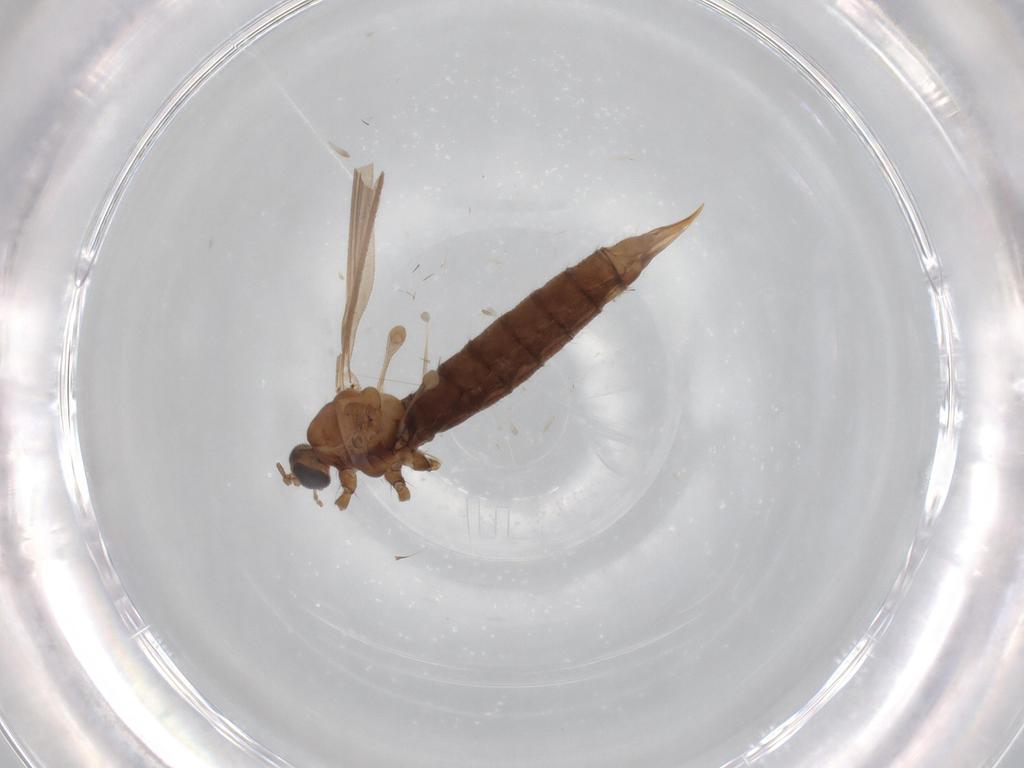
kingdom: Animalia
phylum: Arthropoda
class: Insecta
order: Diptera
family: Limoniidae
